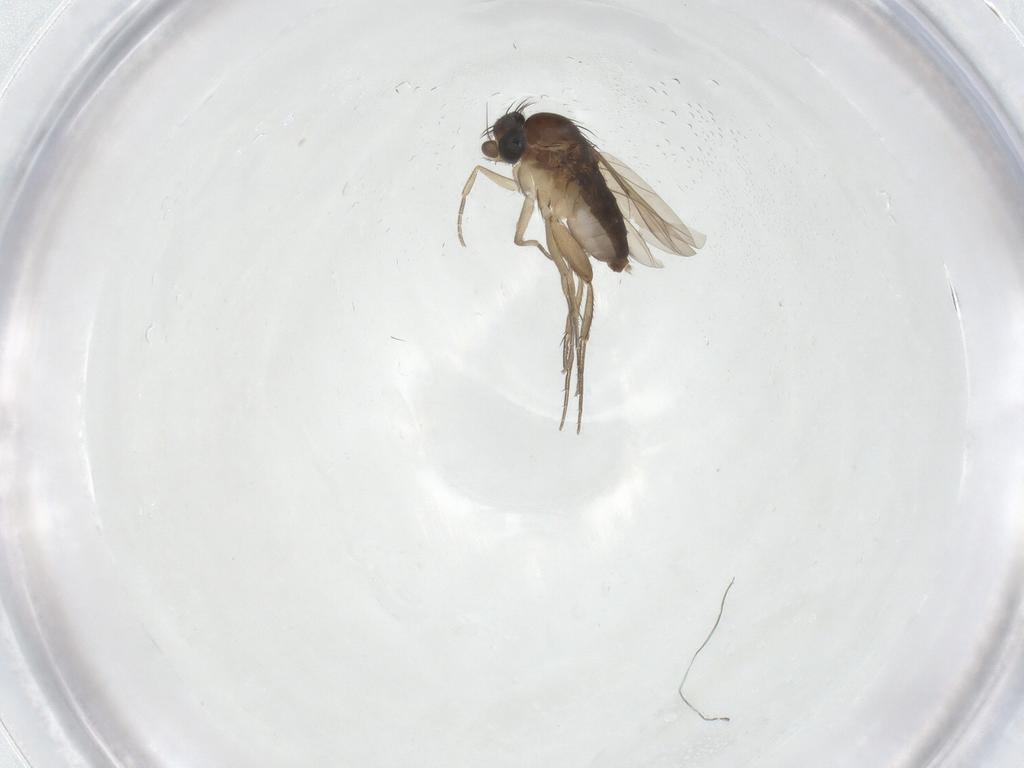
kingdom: Animalia
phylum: Arthropoda
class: Insecta
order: Diptera
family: Phoridae
